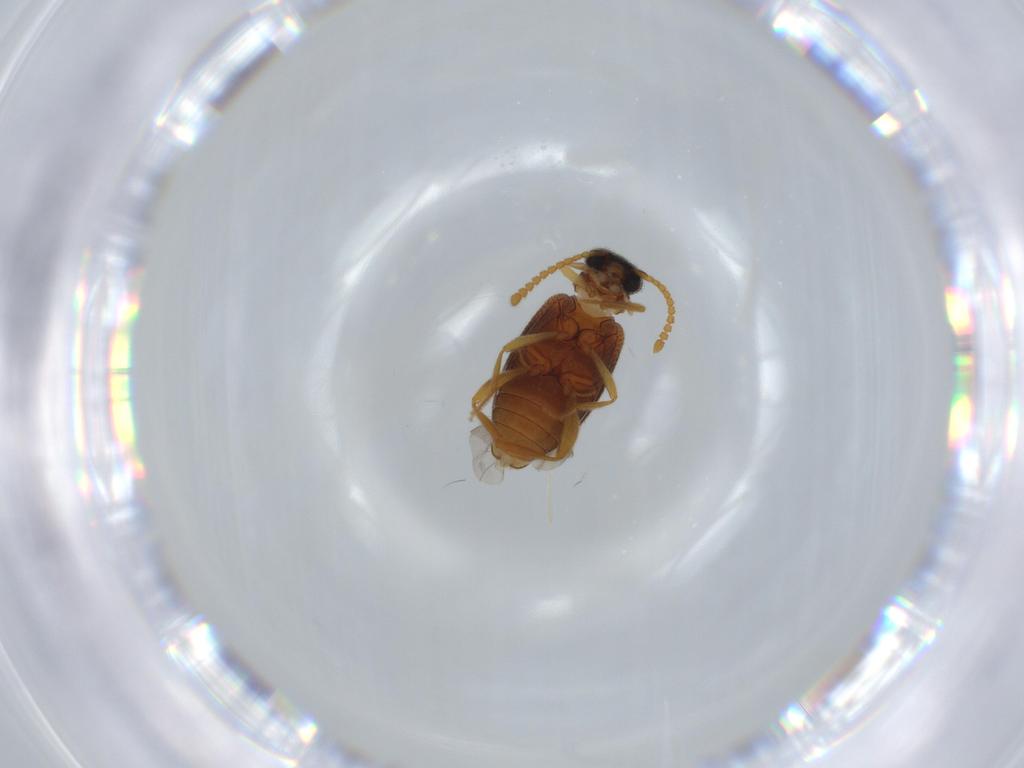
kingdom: Animalia
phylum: Arthropoda
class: Insecta
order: Coleoptera
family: Aderidae
